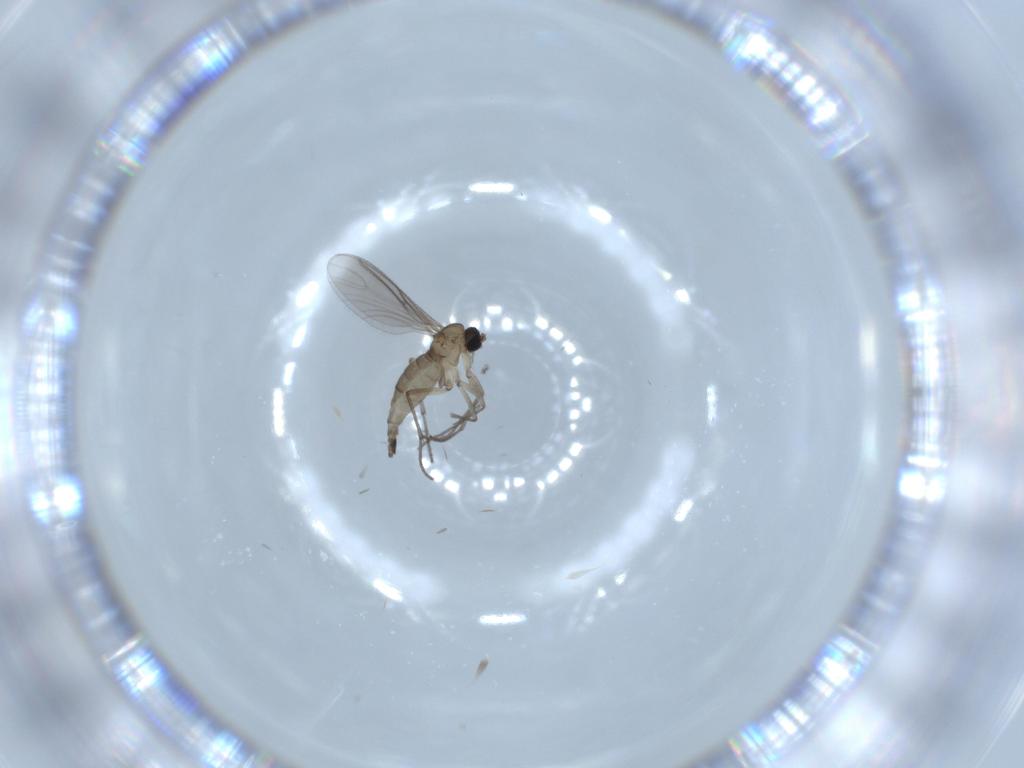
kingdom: Animalia
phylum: Arthropoda
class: Insecta
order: Diptera
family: Sciaridae
